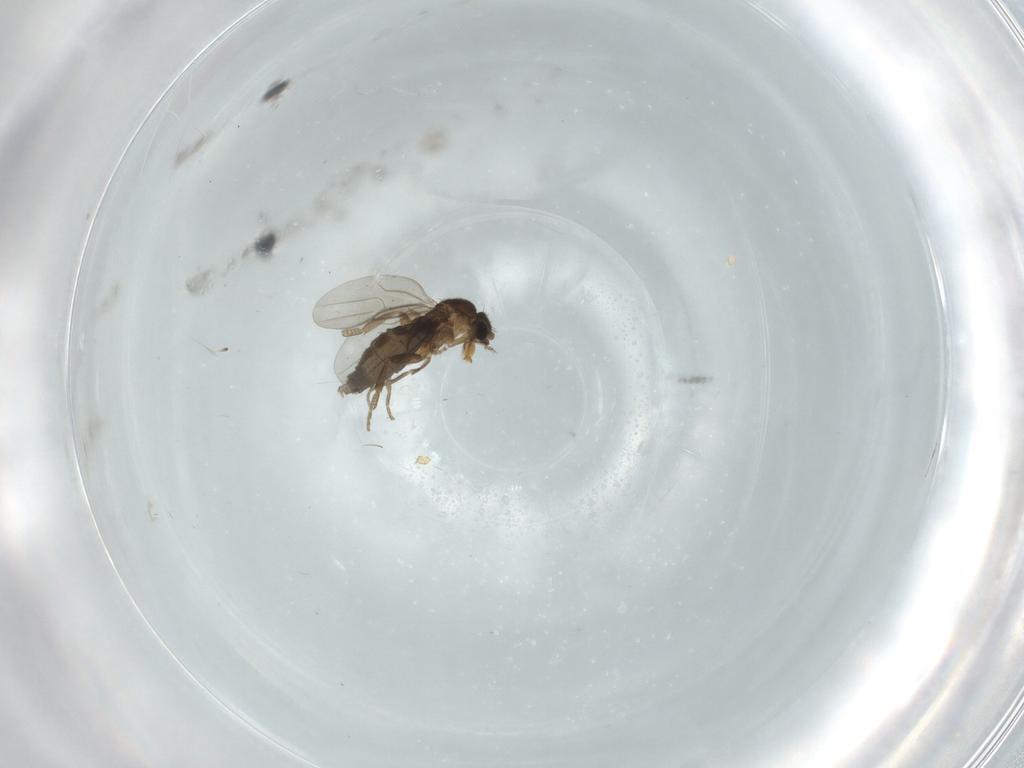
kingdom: Animalia
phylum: Arthropoda
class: Insecta
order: Diptera
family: Phoridae
